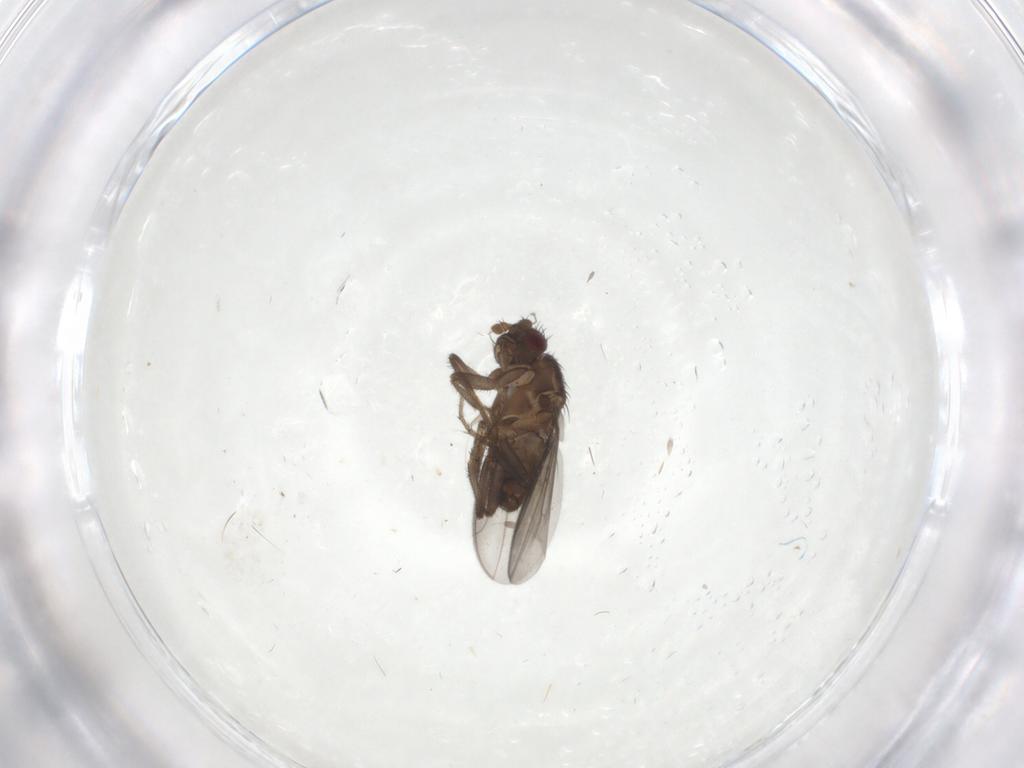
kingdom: Animalia
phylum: Arthropoda
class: Insecta
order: Diptera
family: Sphaeroceridae
